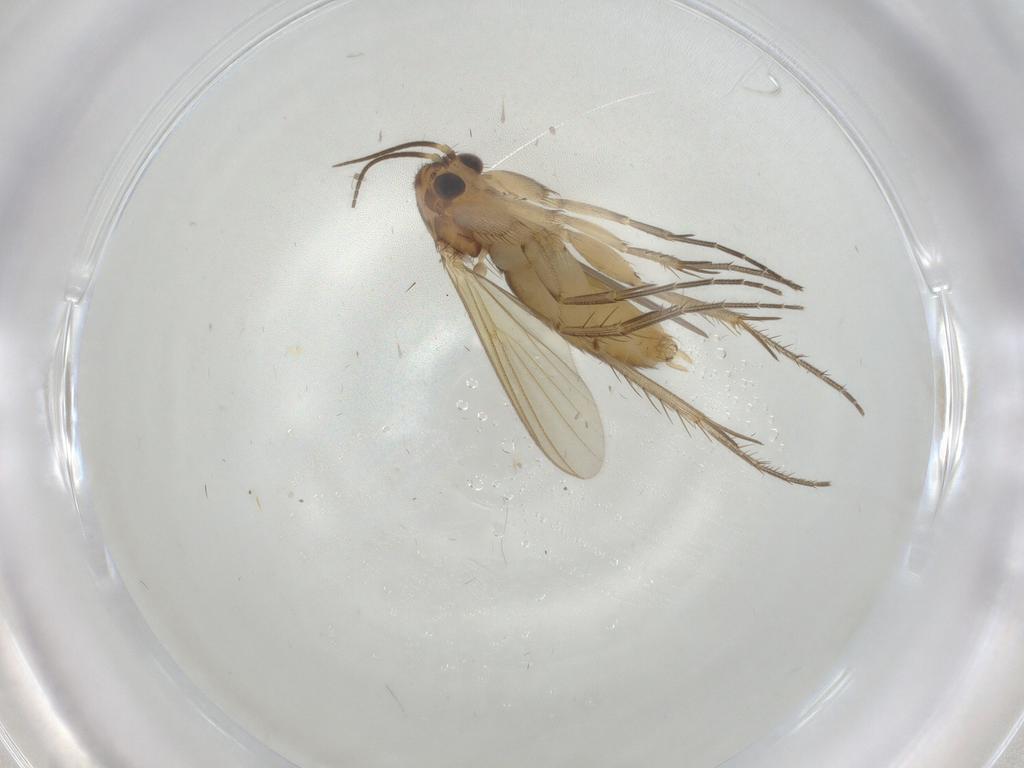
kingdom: Animalia
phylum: Arthropoda
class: Insecta
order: Diptera
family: Mycetophilidae
